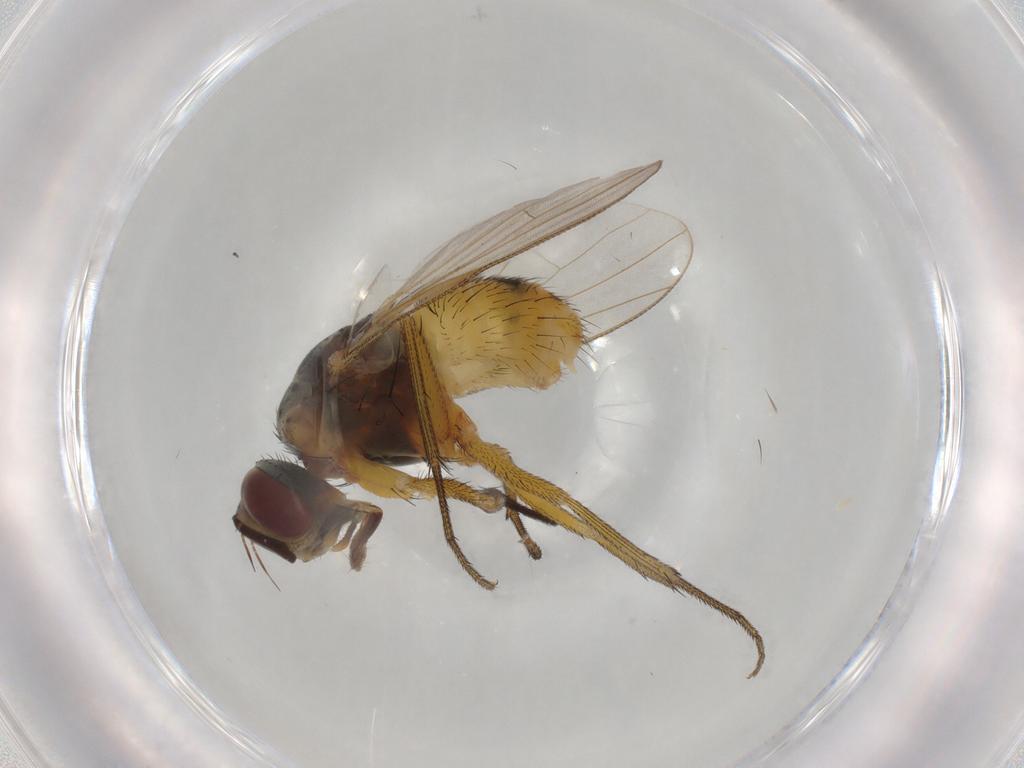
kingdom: Animalia
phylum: Arthropoda
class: Insecta
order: Diptera
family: Muscidae
